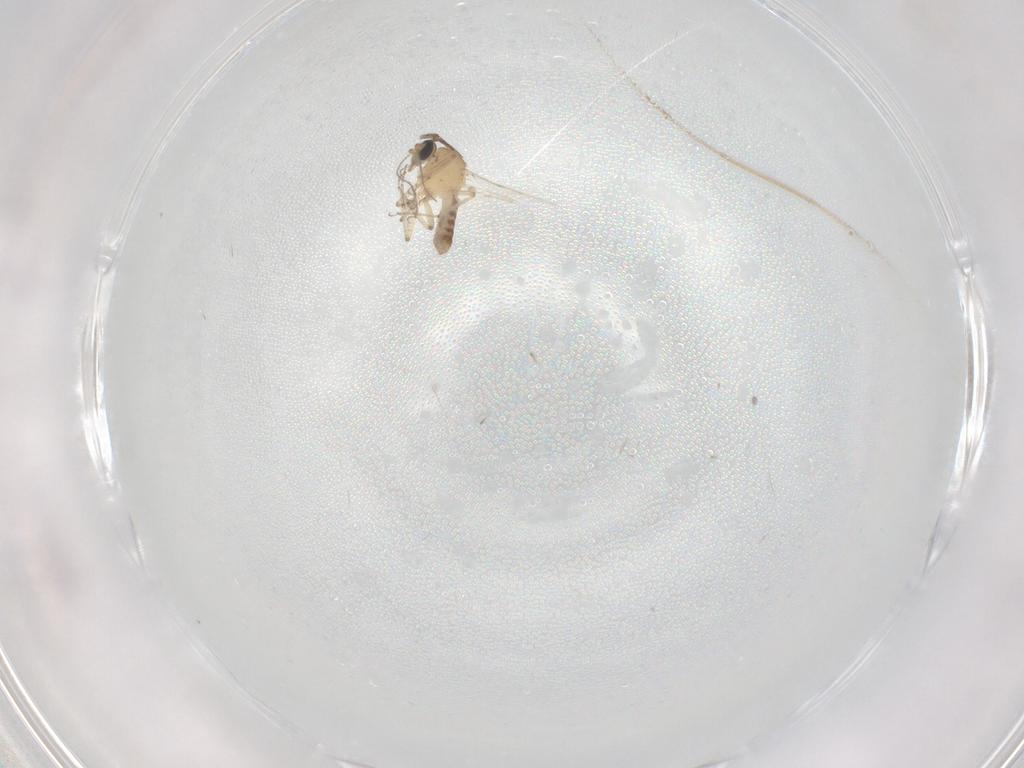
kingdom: Animalia
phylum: Arthropoda
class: Insecta
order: Diptera
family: Ceratopogonidae
